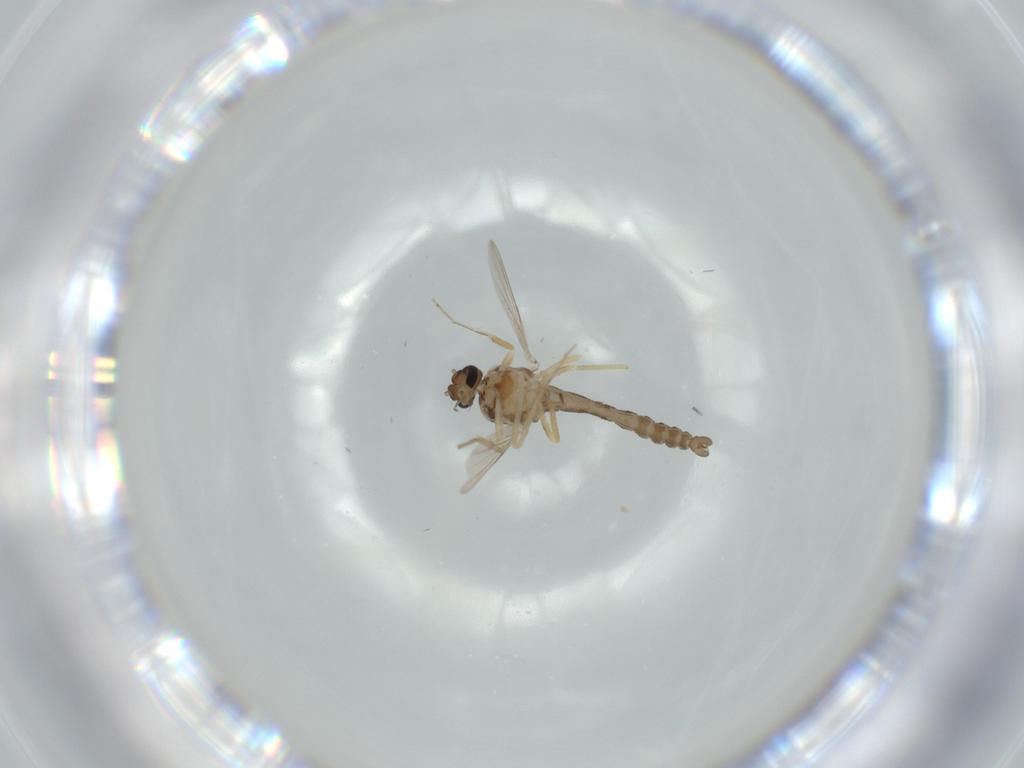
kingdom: Animalia
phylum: Arthropoda
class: Insecta
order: Diptera
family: Ceratopogonidae
